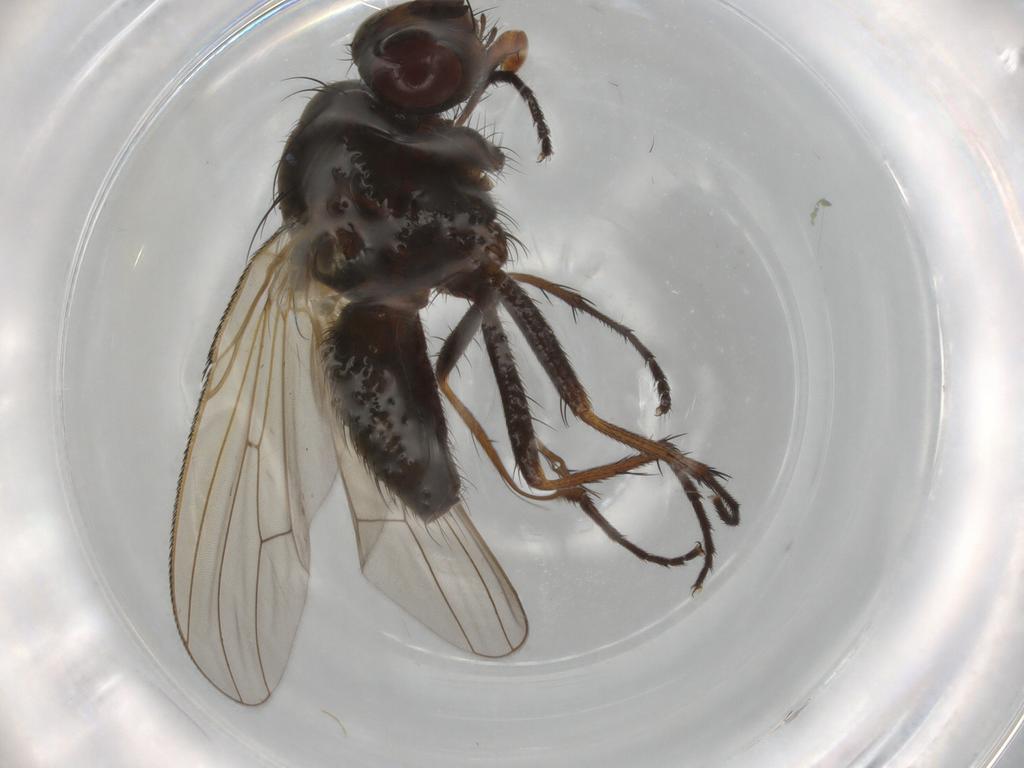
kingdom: Animalia
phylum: Arthropoda
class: Insecta
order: Diptera
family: Anthomyiidae
